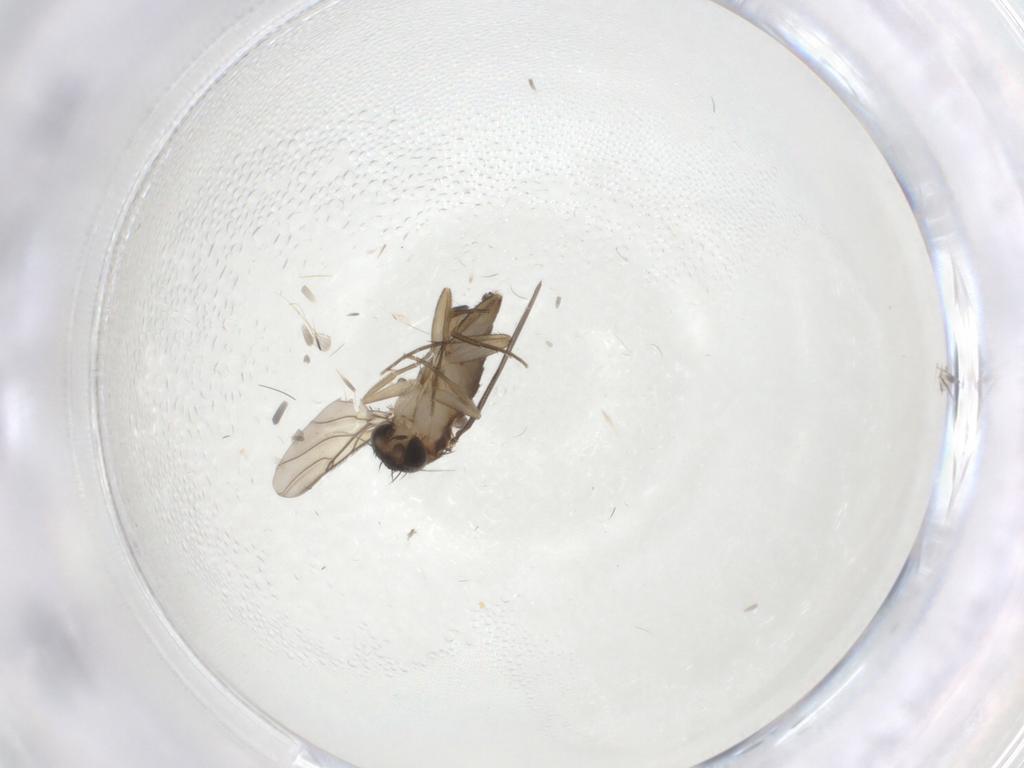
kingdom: Animalia
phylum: Arthropoda
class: Insecta
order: Diptera
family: Phoridae
